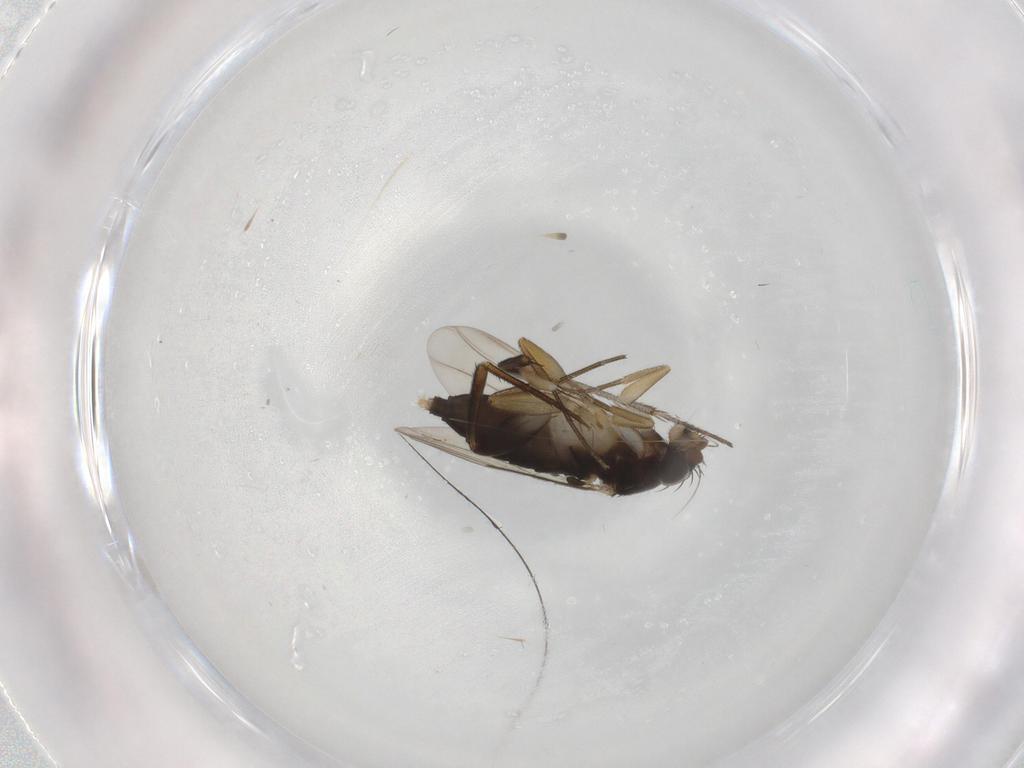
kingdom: Animalia
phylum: Arthropoda
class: Insecta
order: Diptera
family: Phoridae
